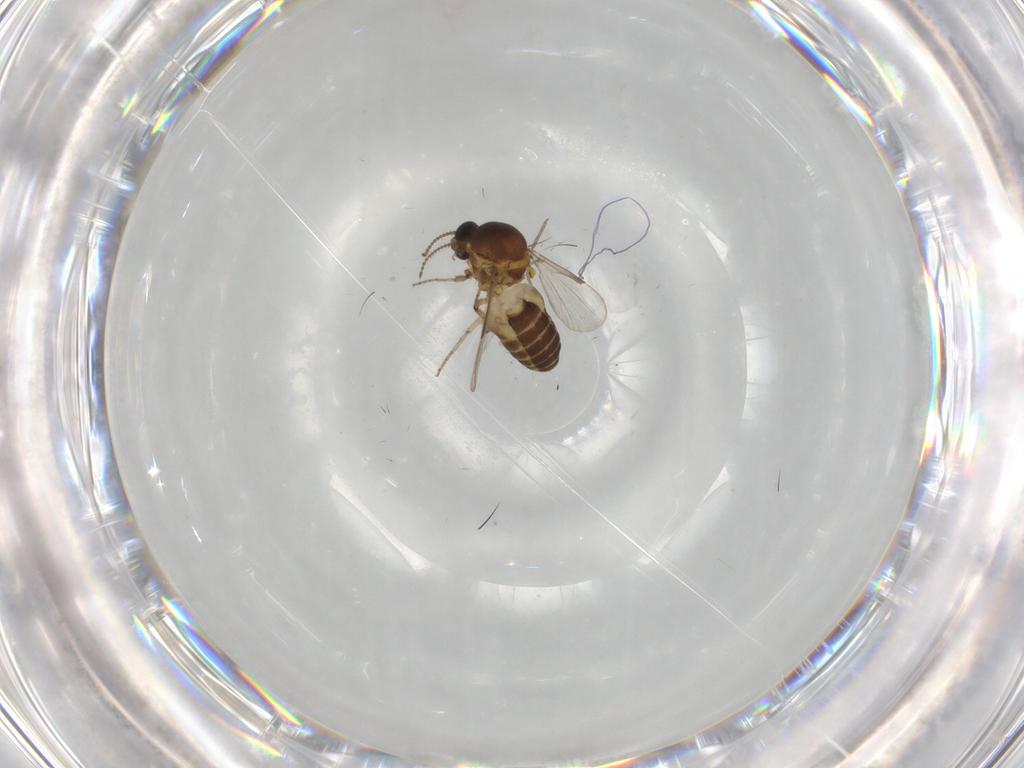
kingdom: Animalia
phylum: Arthropoda
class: Insecta
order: Diptera
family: Ceratopogonidae
